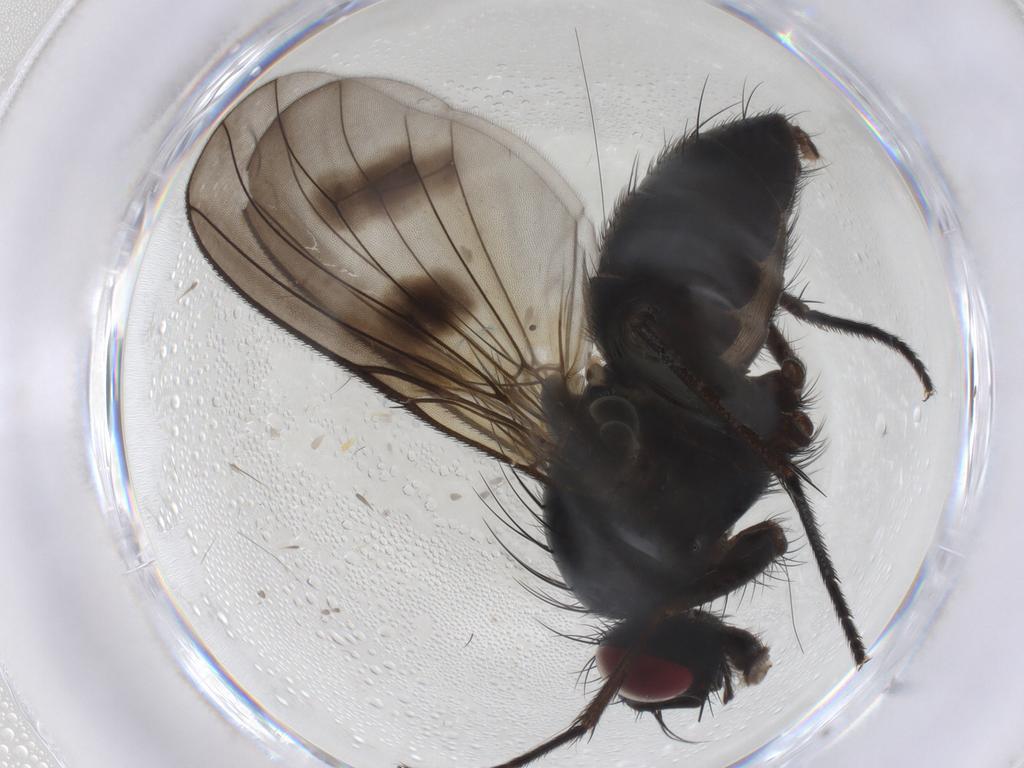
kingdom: Animalia
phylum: Arthropoda
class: Insecta
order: Diptera
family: Muscidae
